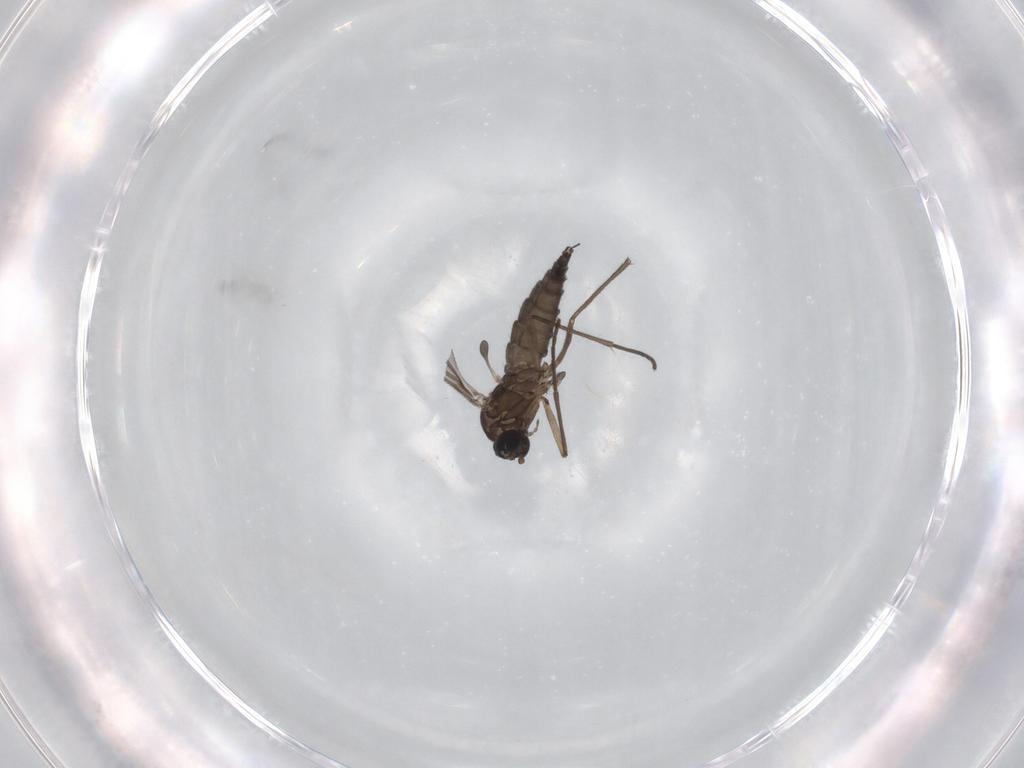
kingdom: Animalia
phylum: Arthropoda
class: Insecta
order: Diptera
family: Sciaridae
